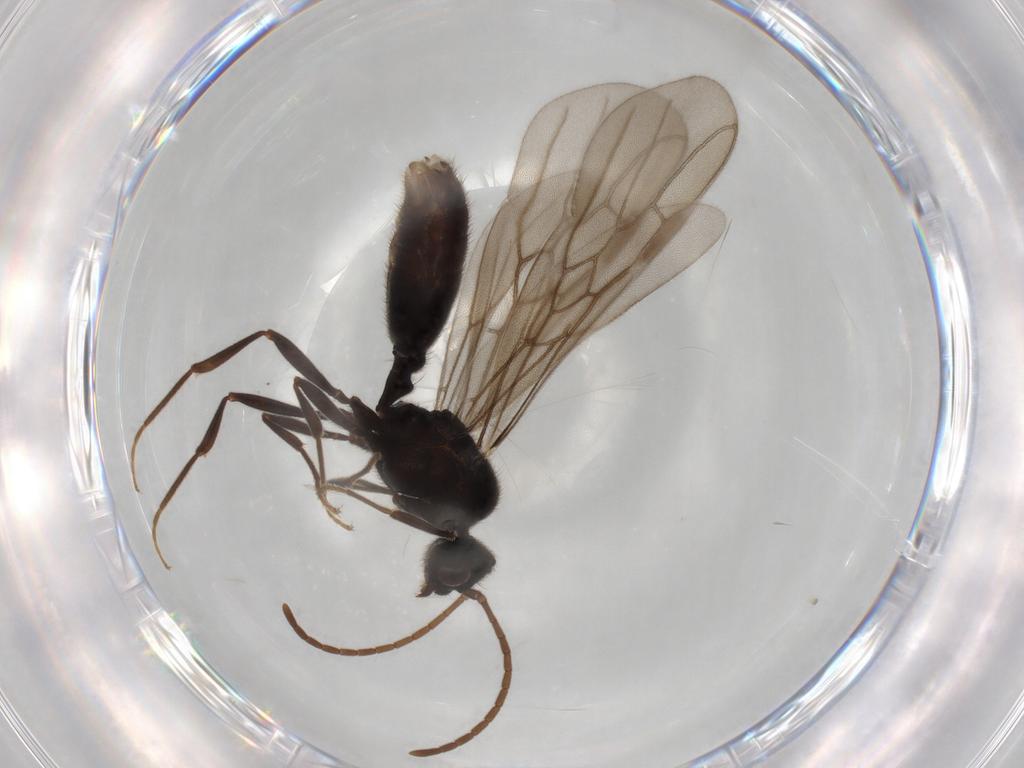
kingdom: Animalia
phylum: Arthropoda
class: Insecta
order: Hymenoptera
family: Formicidae
